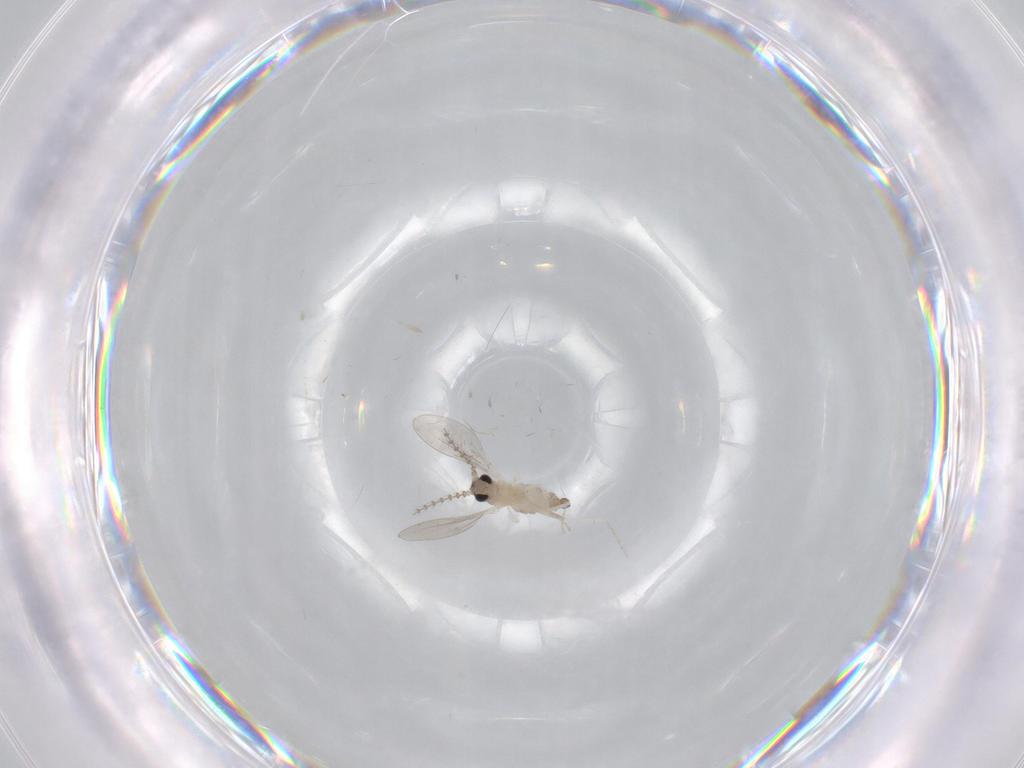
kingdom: Animalia
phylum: Arthropoda
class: Insecta
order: Diptera
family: Cecidomyiidae
